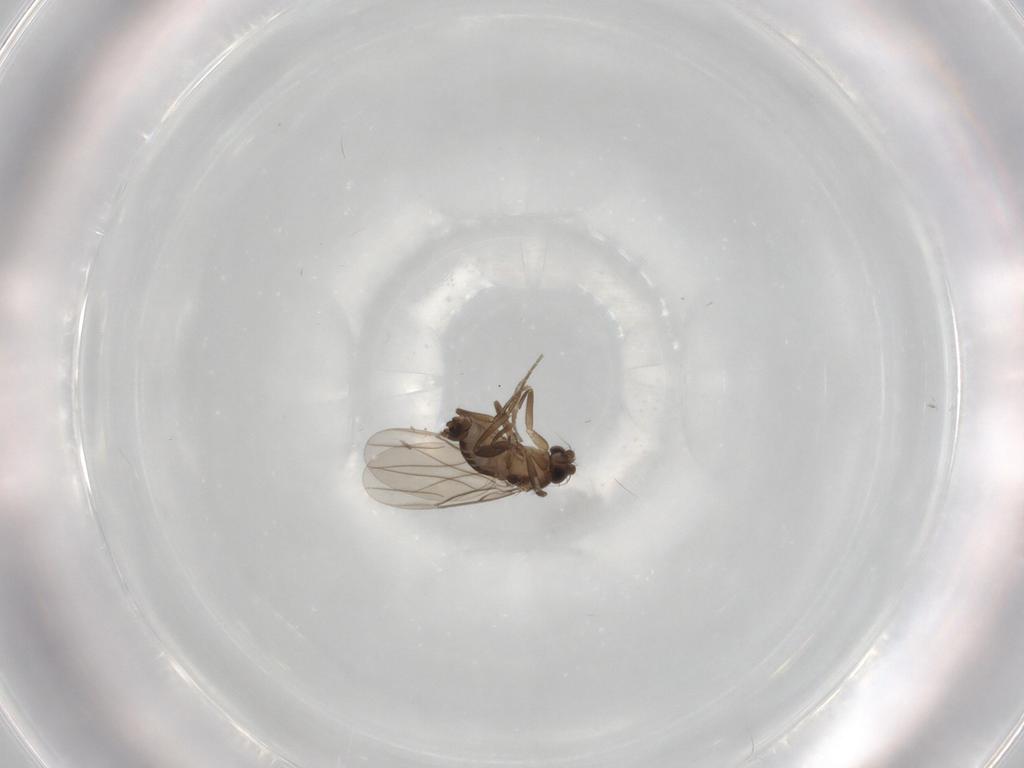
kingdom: Animalia
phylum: Arthropoda
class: Insecta
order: Diptera
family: Phoridae
